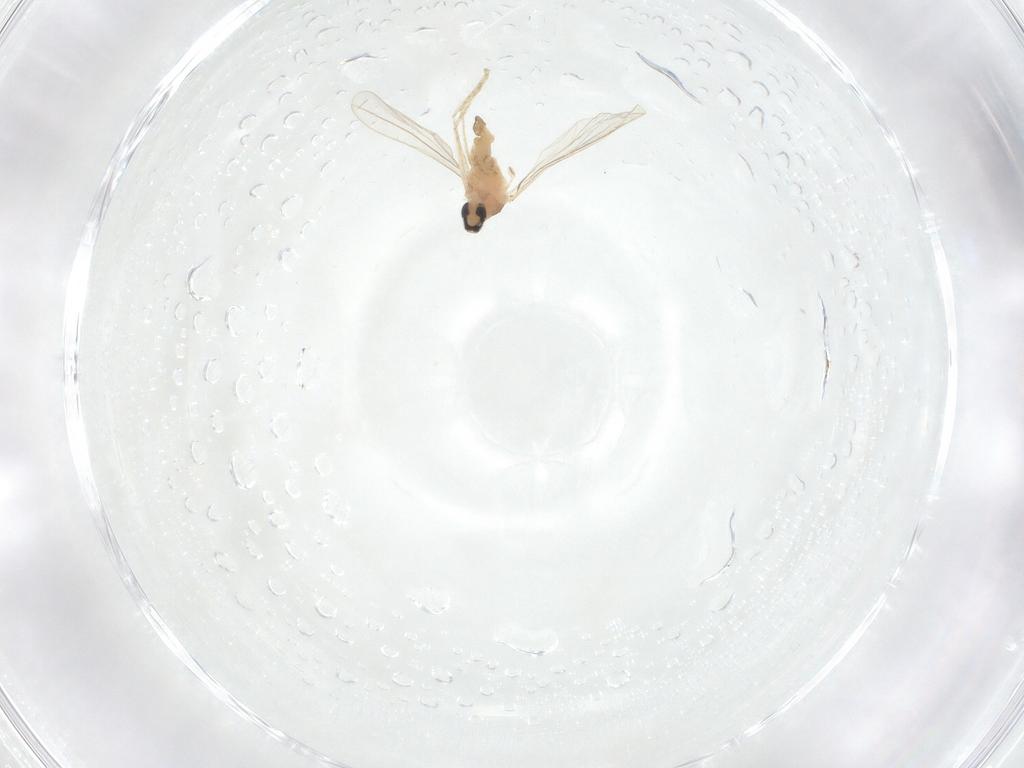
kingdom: Animalia
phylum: Arthropoda
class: Insecta
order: Diptera
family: Cecidomyiidae
